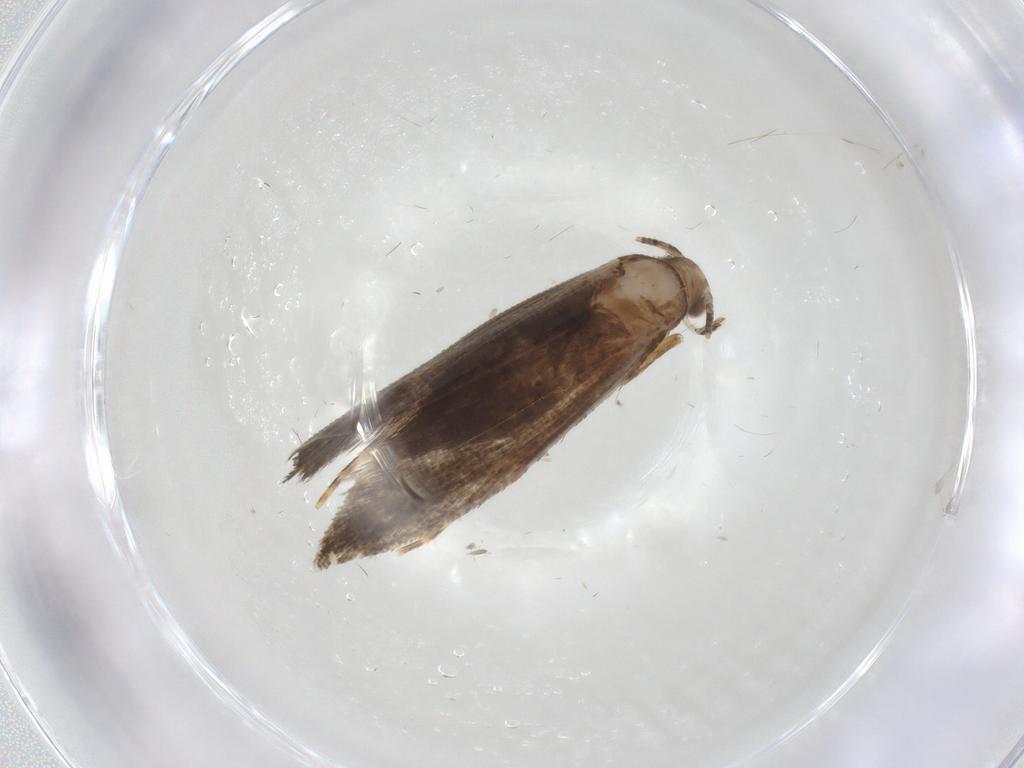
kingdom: Animalia
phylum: Arthropoda
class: Insecta
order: Lepidoptera
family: Tineidae
